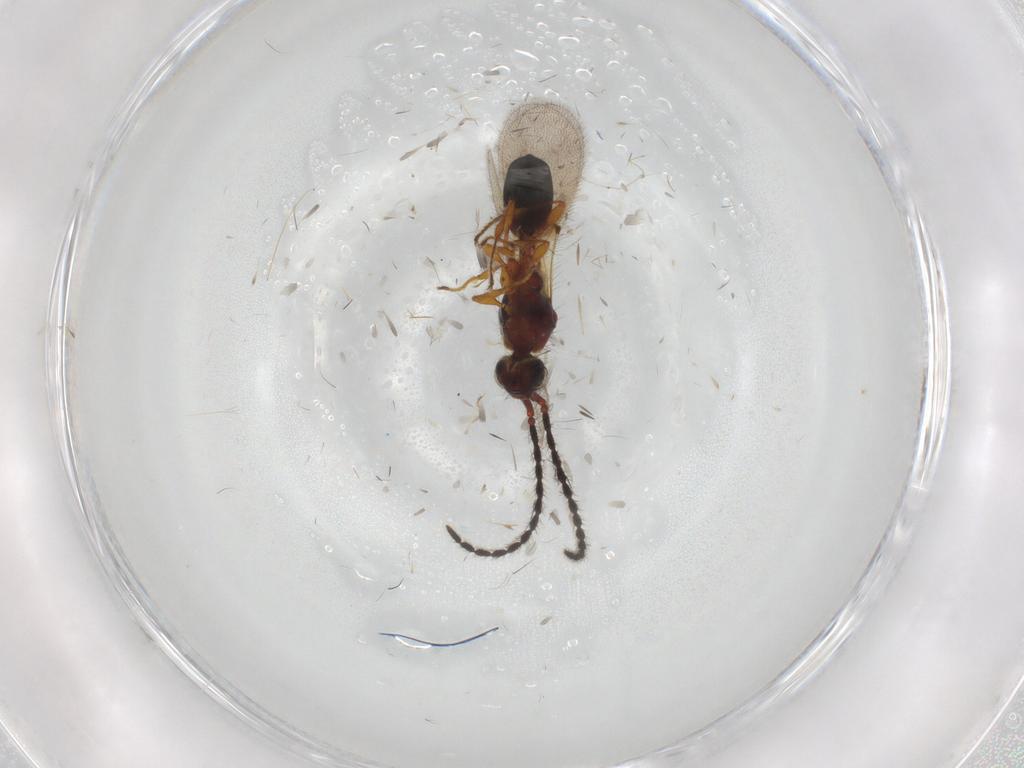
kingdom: Animalia
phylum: Arthropoda
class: Insecta
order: Hymenoptera
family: Diapriidae
